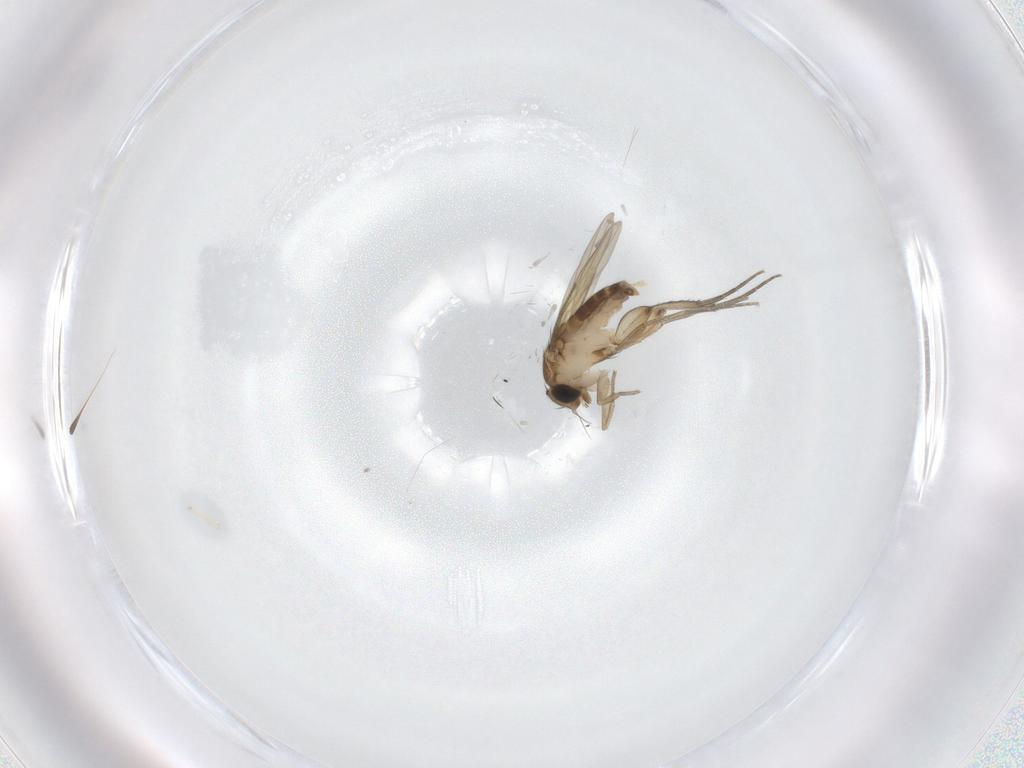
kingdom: Animalia
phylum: Arthropoda
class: Insecta
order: Diptera
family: Phoridae
